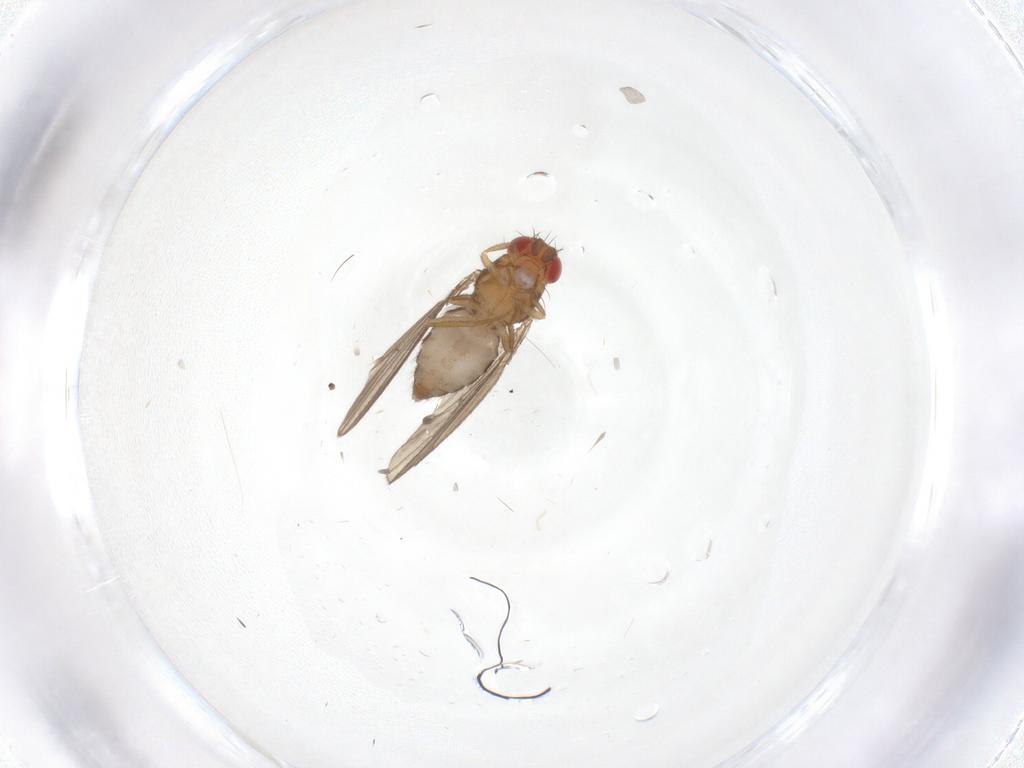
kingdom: Animalia
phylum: Arthropoda
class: Insecta
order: Diptera
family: Drosophilidae
